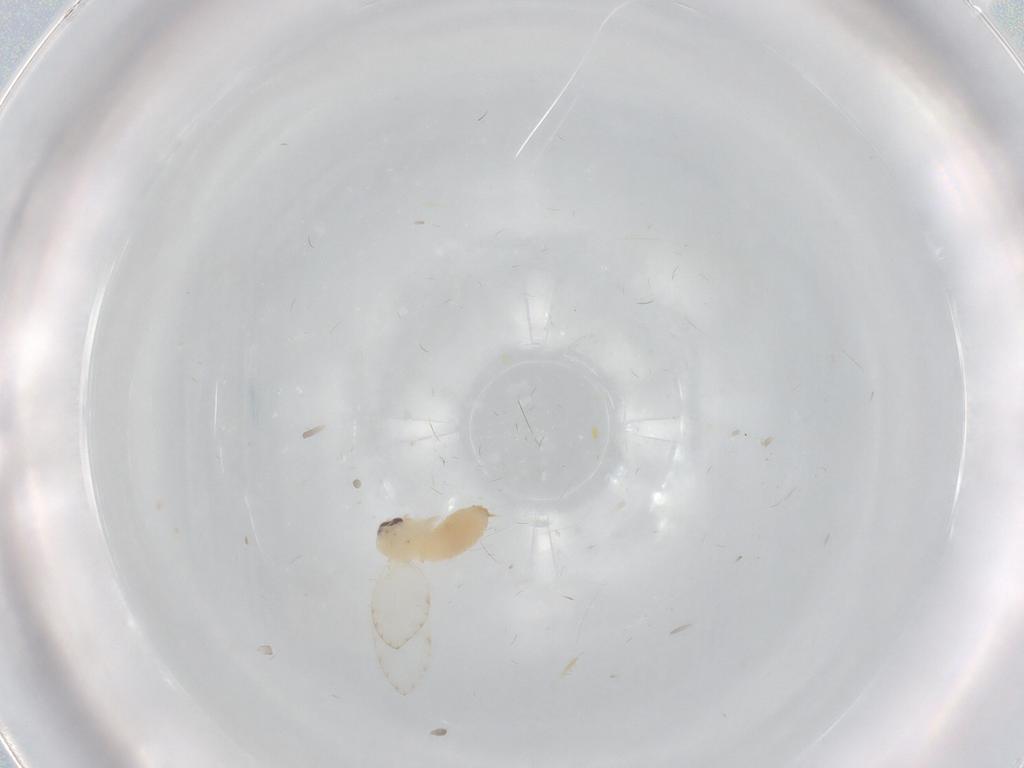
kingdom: Animalia
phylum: Arthropoda
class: Insecta
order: Diptera
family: Psychodidae
